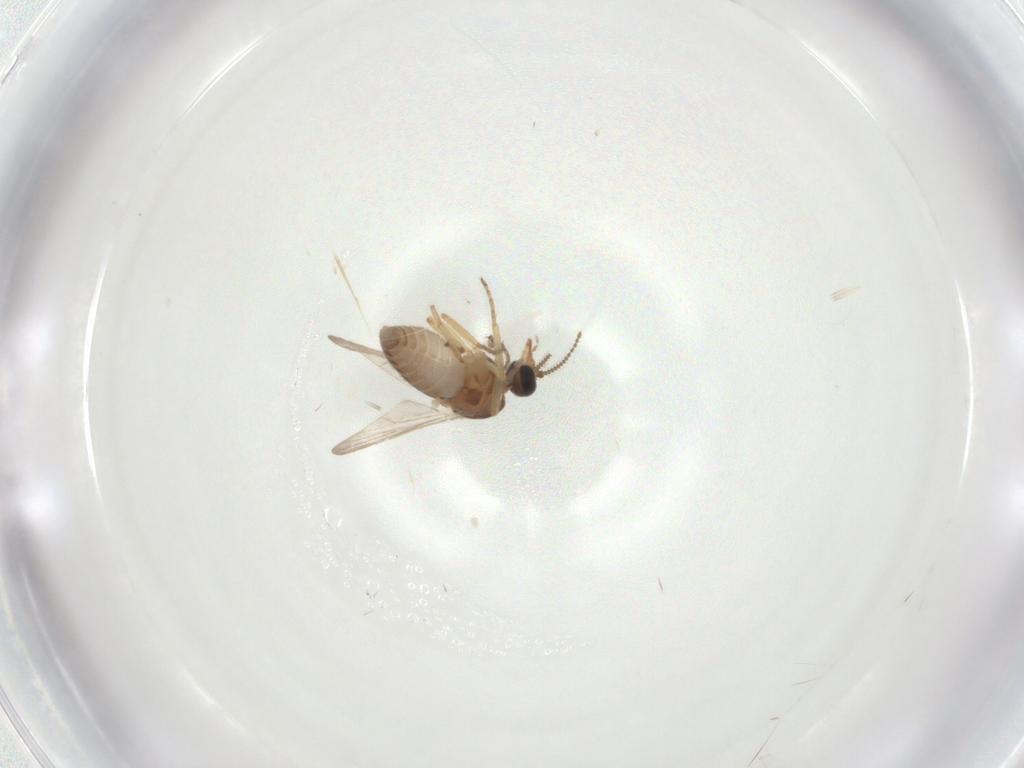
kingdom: Animalia
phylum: Arthropoda
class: Insecta
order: Diptera
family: Ceratopogonidae
